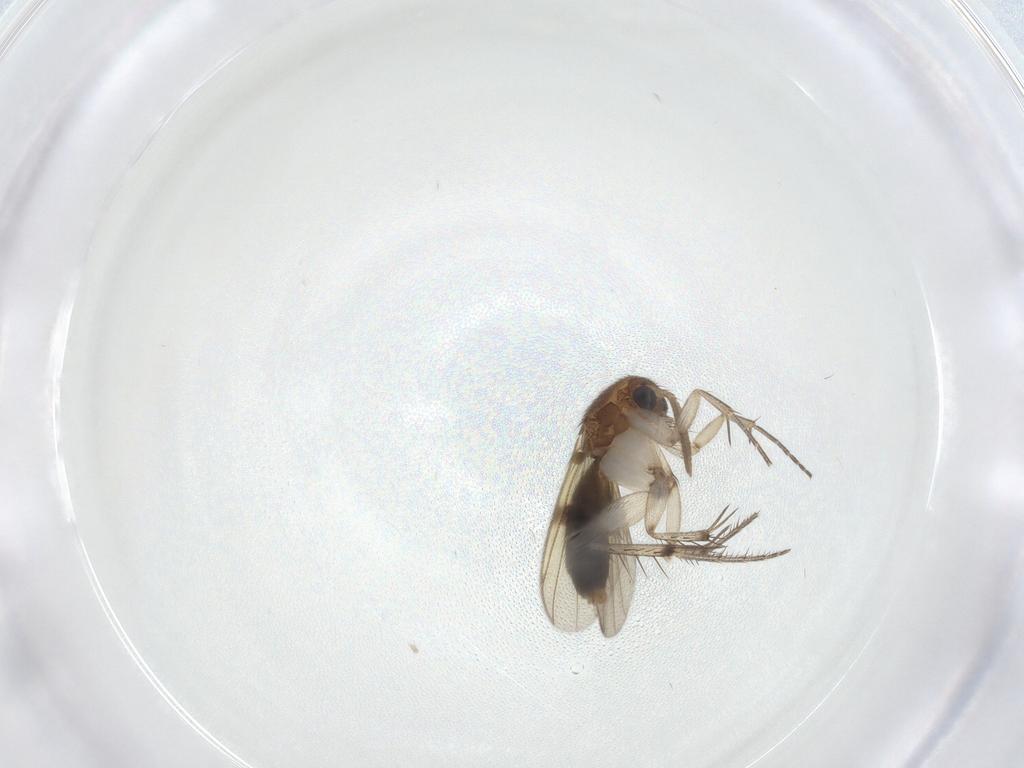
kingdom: Animalia
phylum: Arthropoda
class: Insecta
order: Diptera
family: Mycetophilidae
